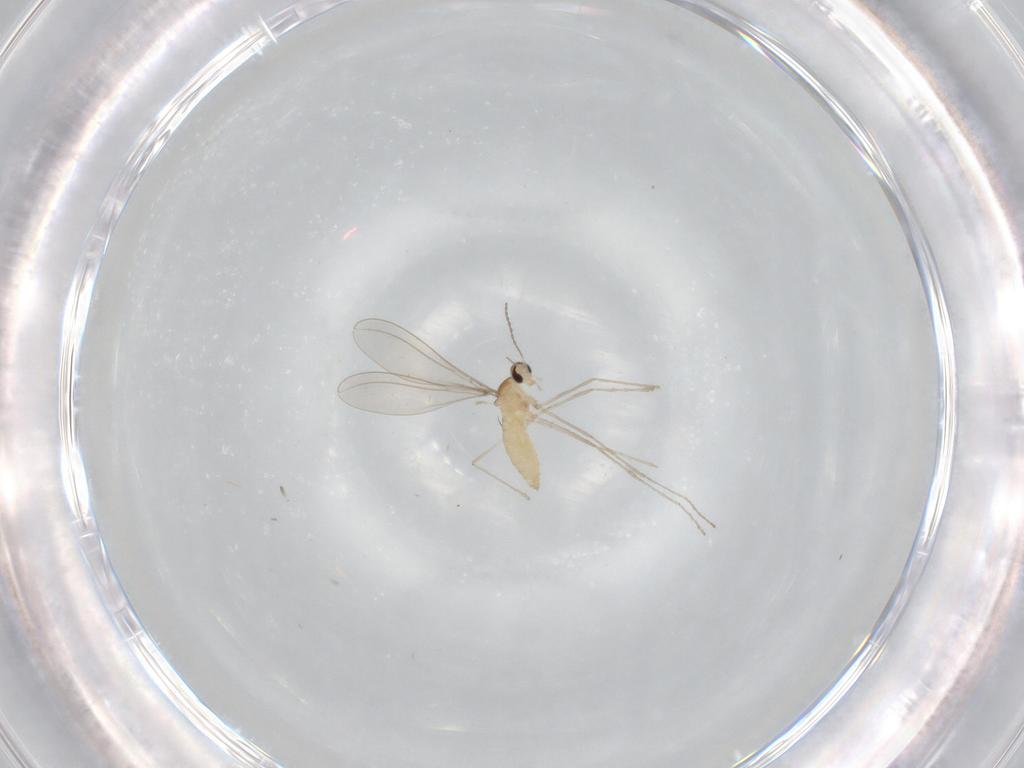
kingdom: Animalia
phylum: Arthropoda
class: Insecta
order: Diptera
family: Cecidomyiidae
